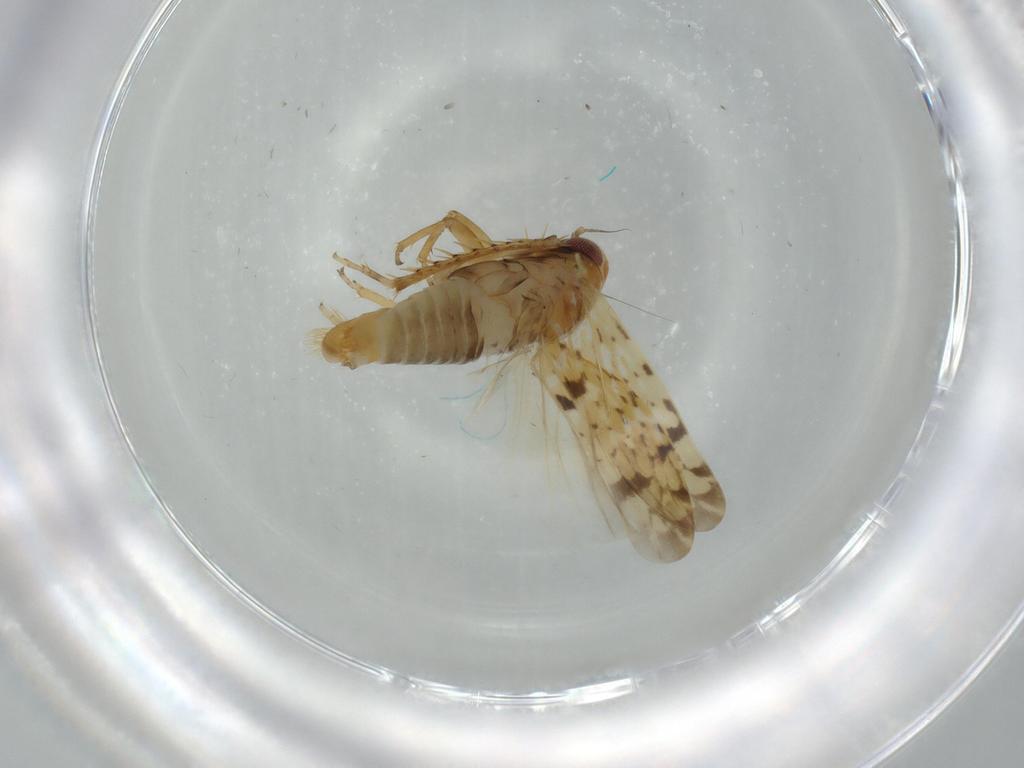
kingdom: Animalia
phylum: Arthropoda
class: Insecta
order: Hemiptera
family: Cicadellidae
